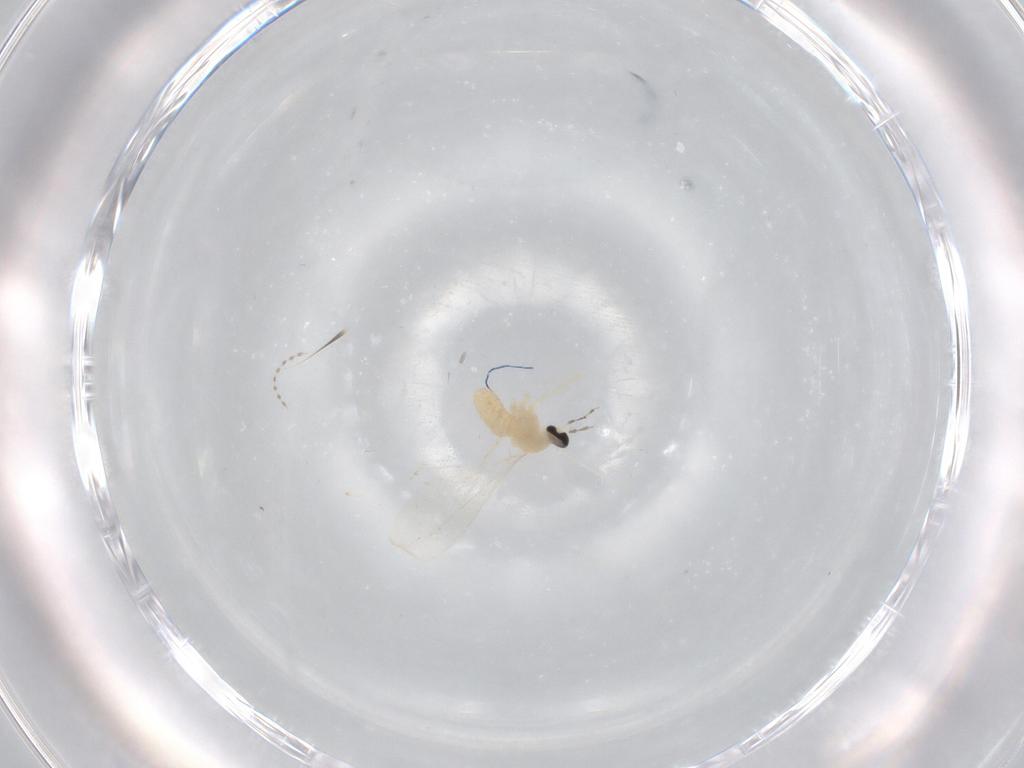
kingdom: Animalia
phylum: Arthropoda
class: Insecta
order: Diptera
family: Cecidomyiidae
